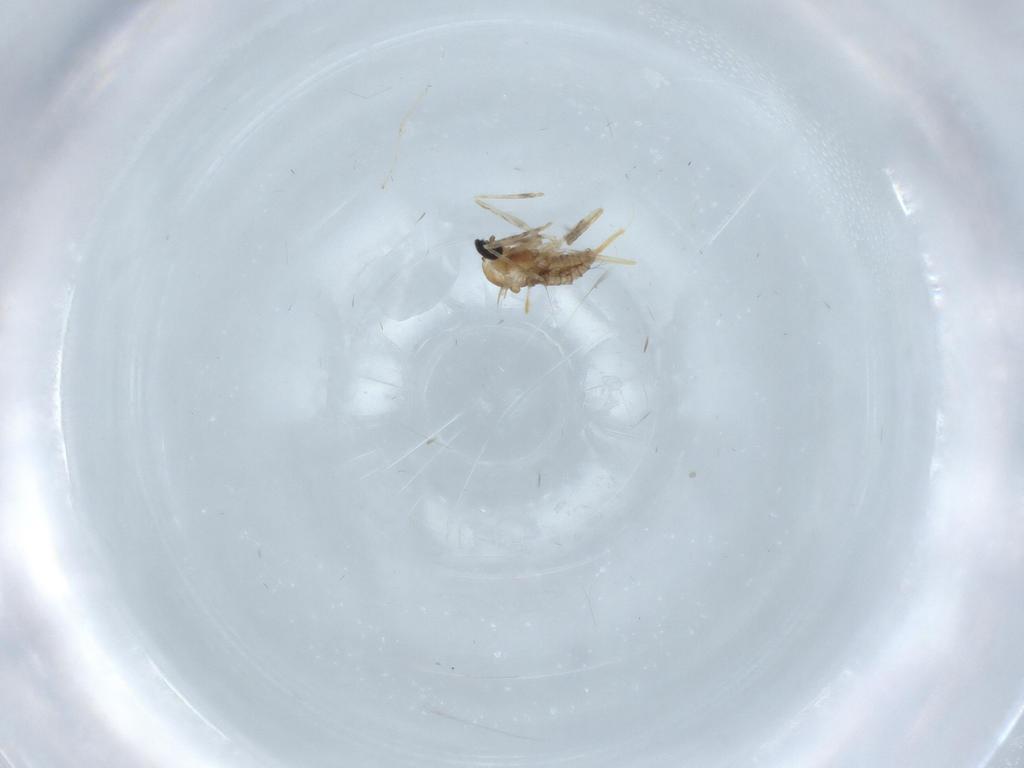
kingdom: Animalia
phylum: Arthropoda
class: Insecta
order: Diptera
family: Cecidomyiidae
